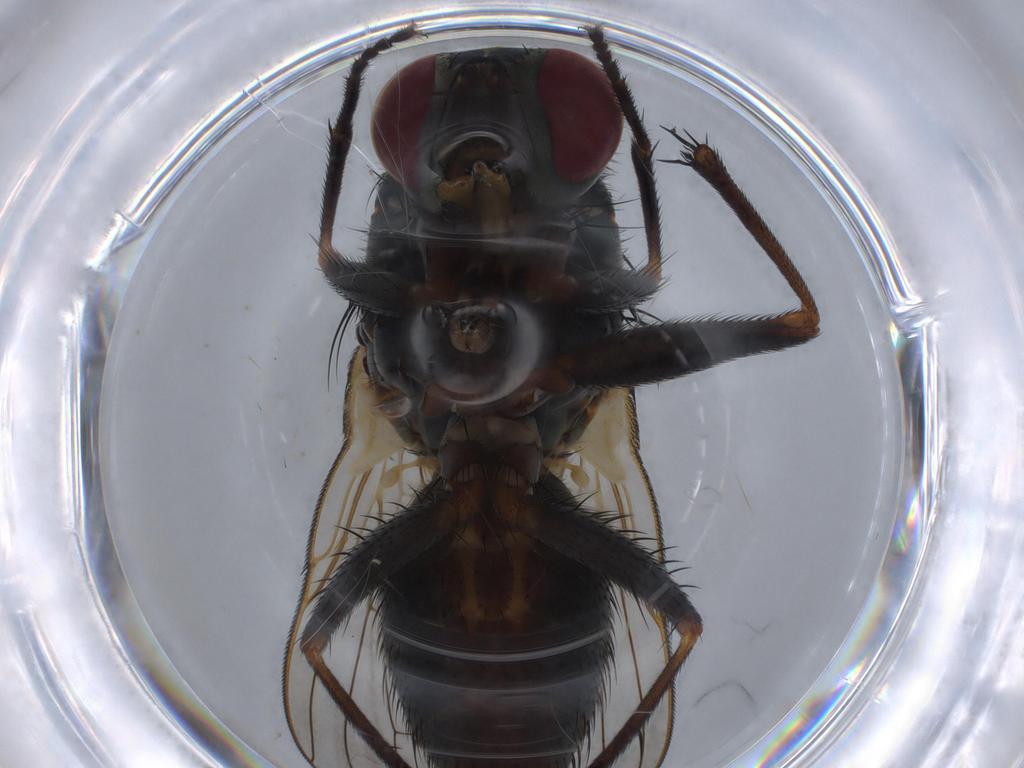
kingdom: Animalia
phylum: Arthropoda
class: Insecta
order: Diptera
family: Ceratopogonidae
